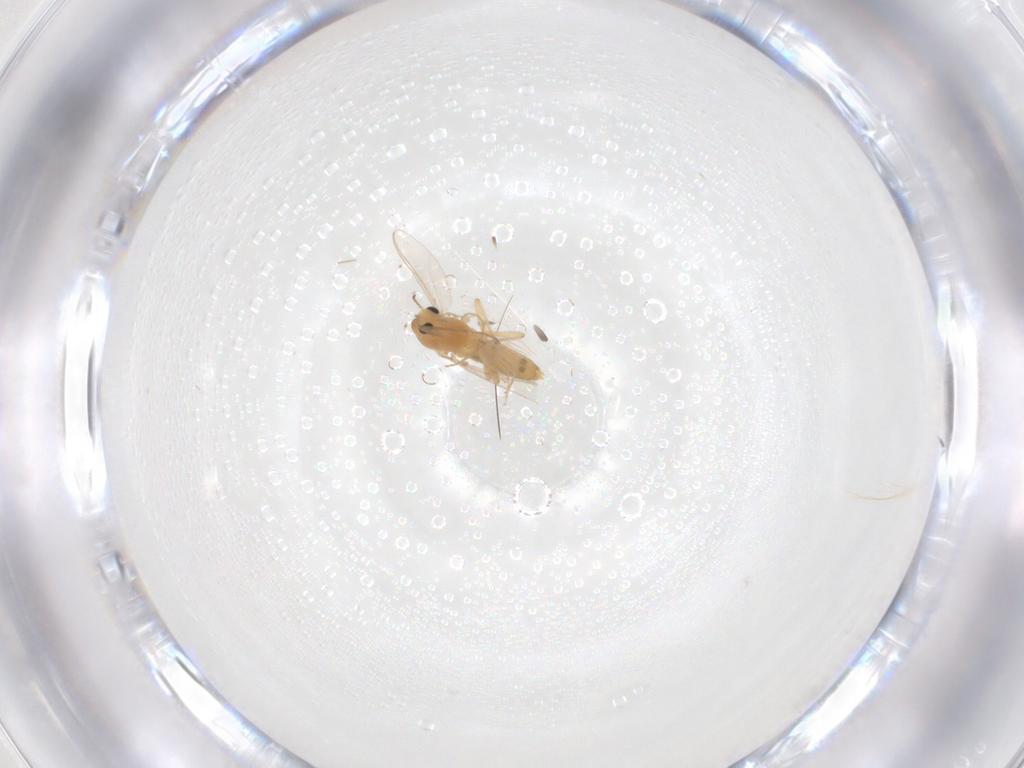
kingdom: Animalia
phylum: Arthropoda
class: Insecta
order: Diptera
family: Chironomidae
